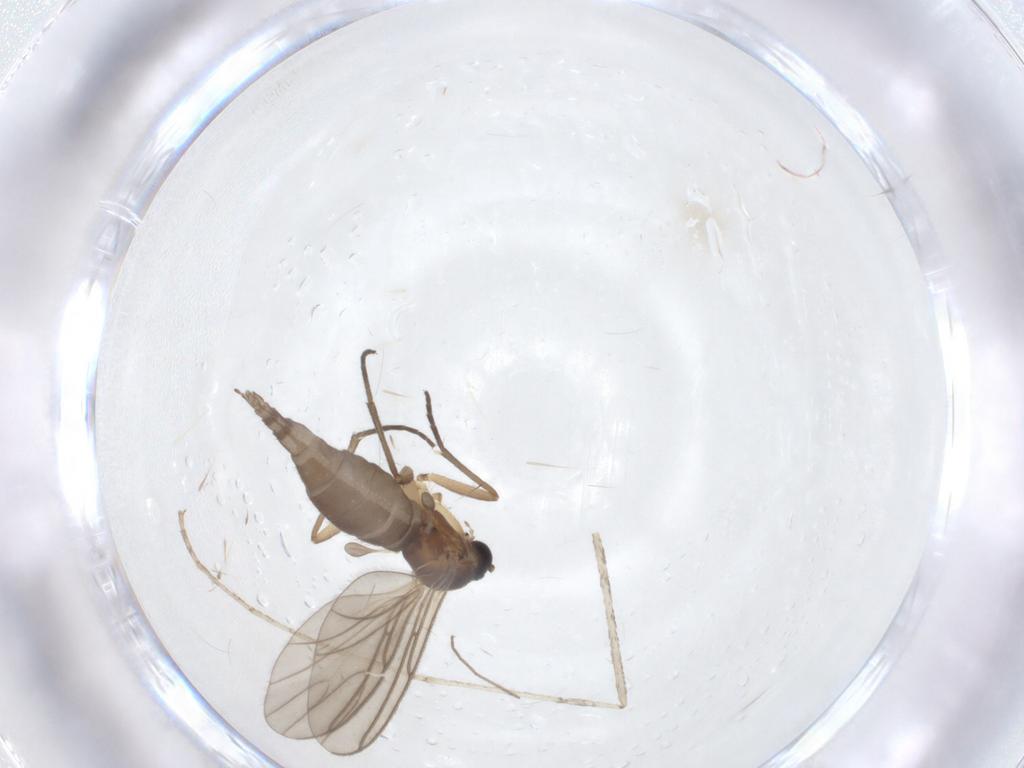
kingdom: Animalia
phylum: Arthropoda
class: Insecta
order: Diptera
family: Sciaridae
